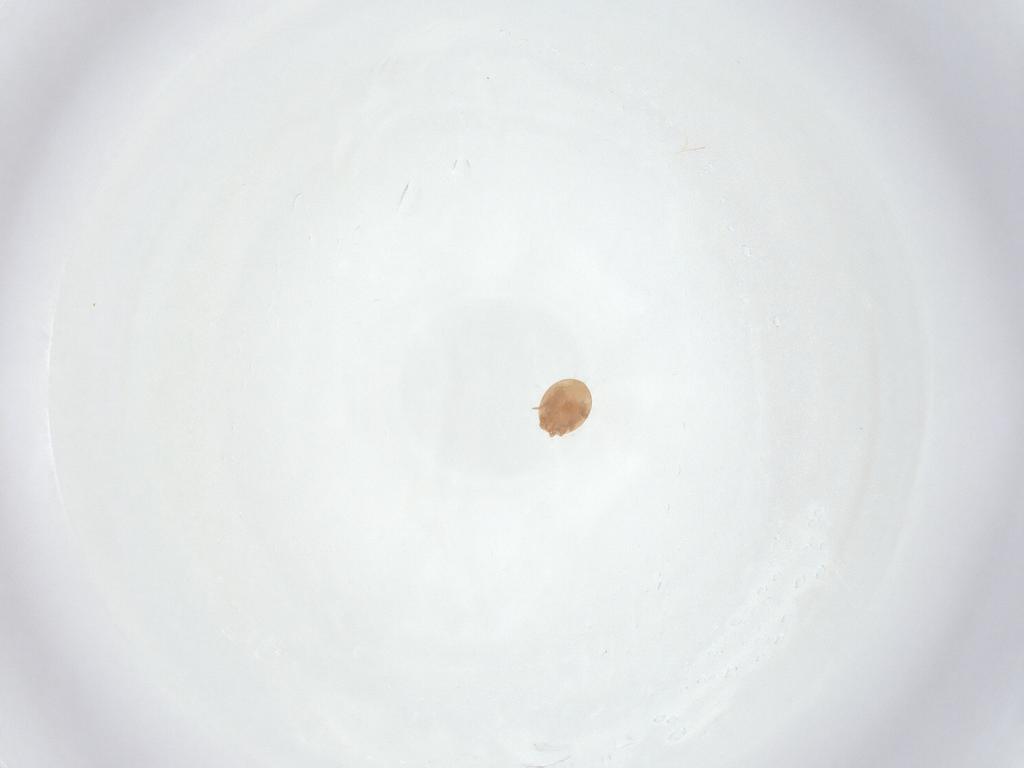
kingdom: Animalia
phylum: Arthropoda
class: Arachnida
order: Mesostigmata
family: Trematuridae
